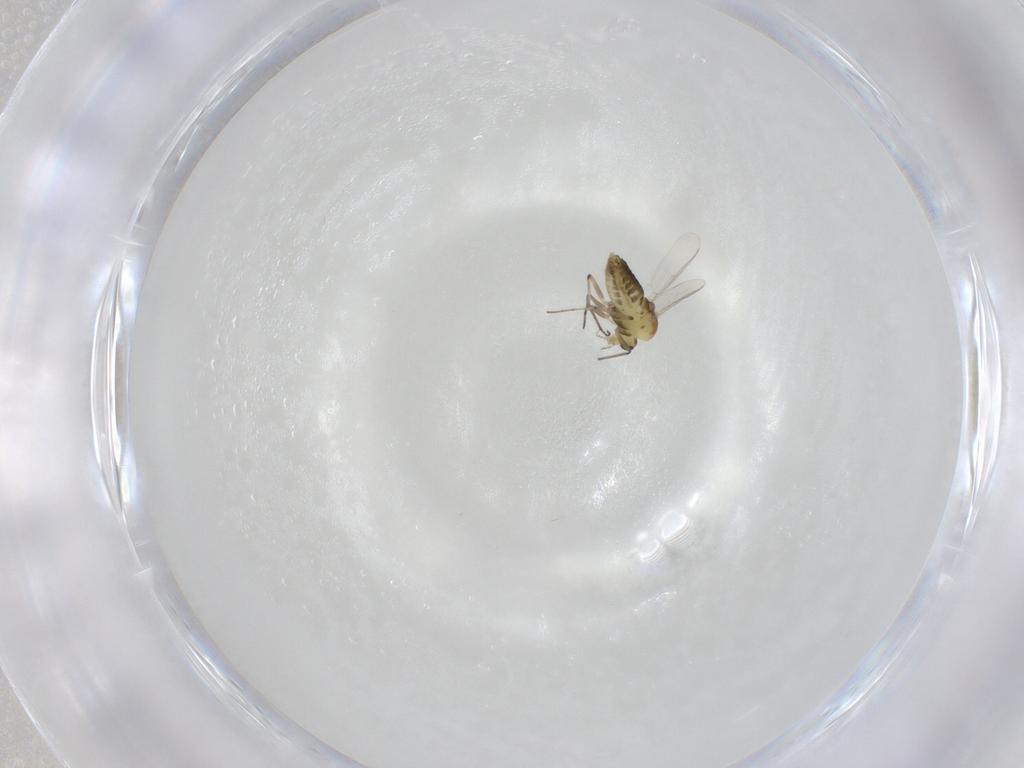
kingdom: Animalia
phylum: Arthropoda
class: Insecta
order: Diptera
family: Chironomidae
